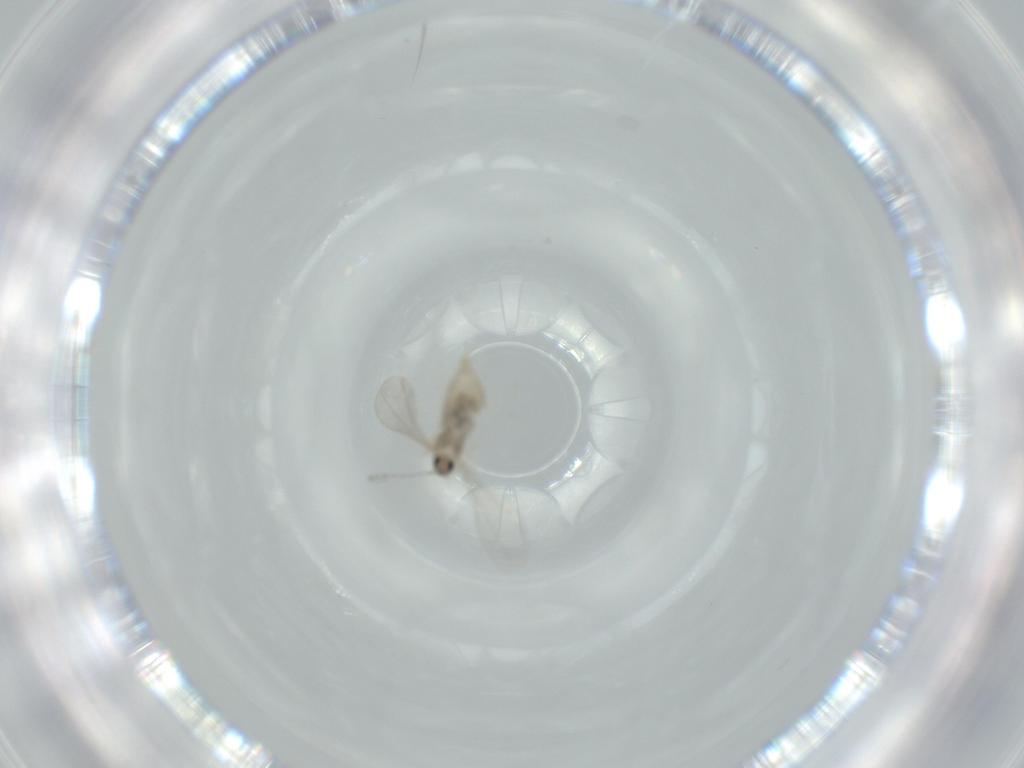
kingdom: Animalia
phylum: Arthropoda
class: Insecta
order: Diptera
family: Cecidomyiidae
